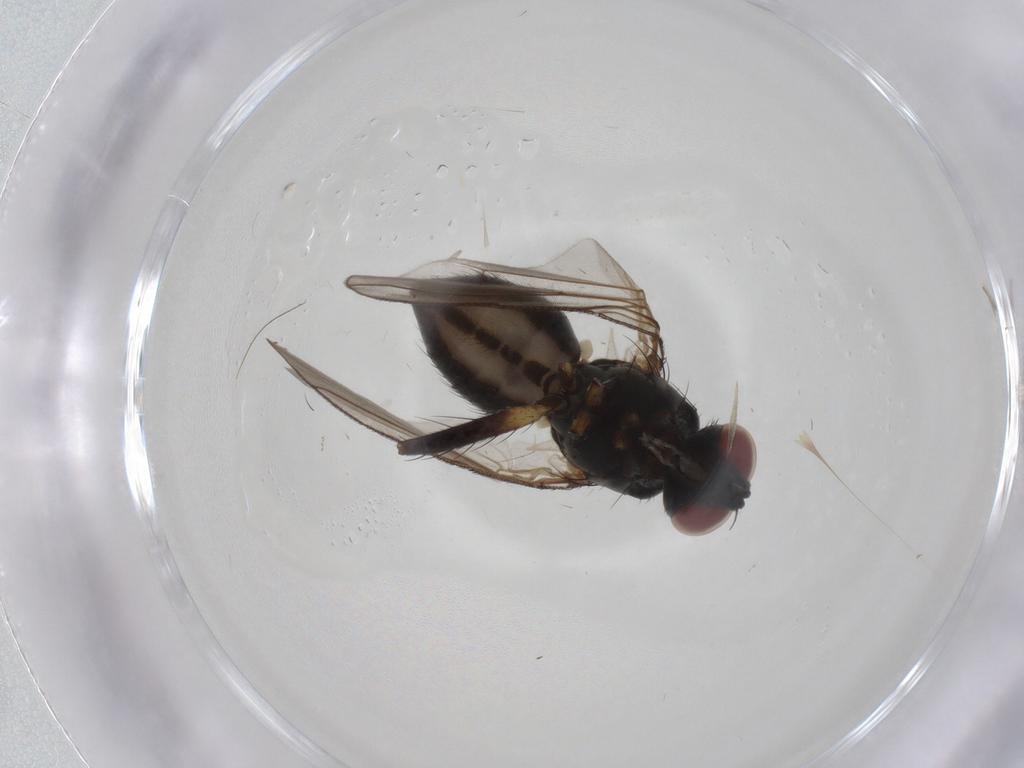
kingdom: Animalia
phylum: Arthropoda
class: Insecta
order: Diptera
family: Muscidae
